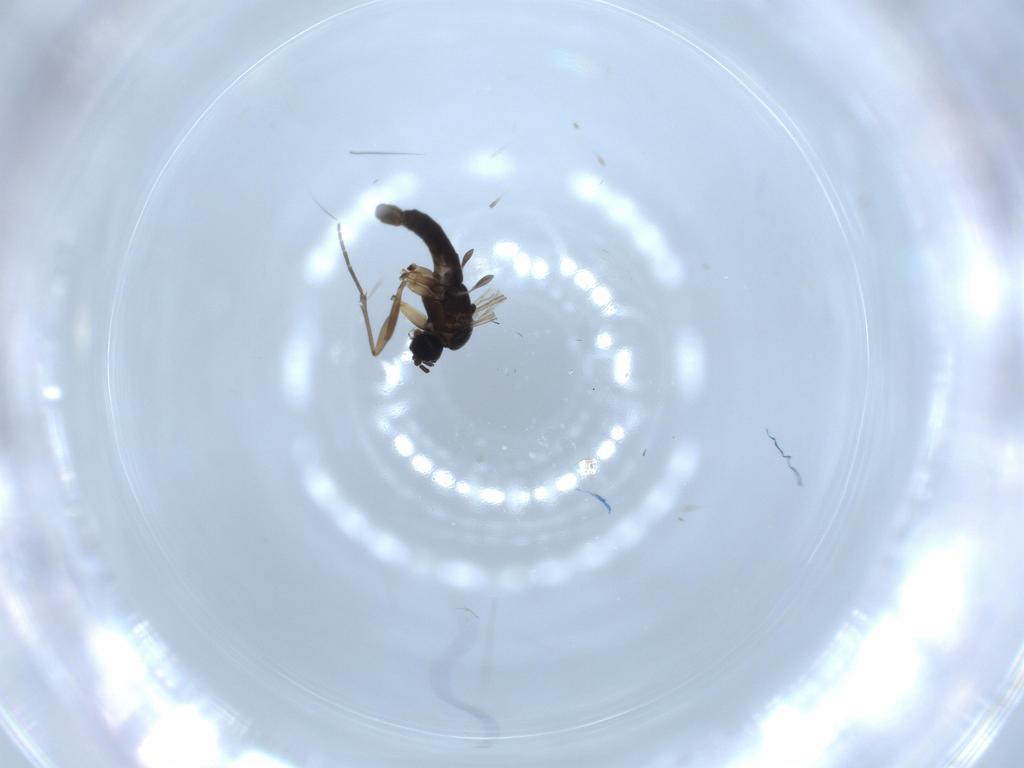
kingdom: Animalia
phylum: Arthropoda
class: Insecta
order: Diptera
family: Sciaridae
